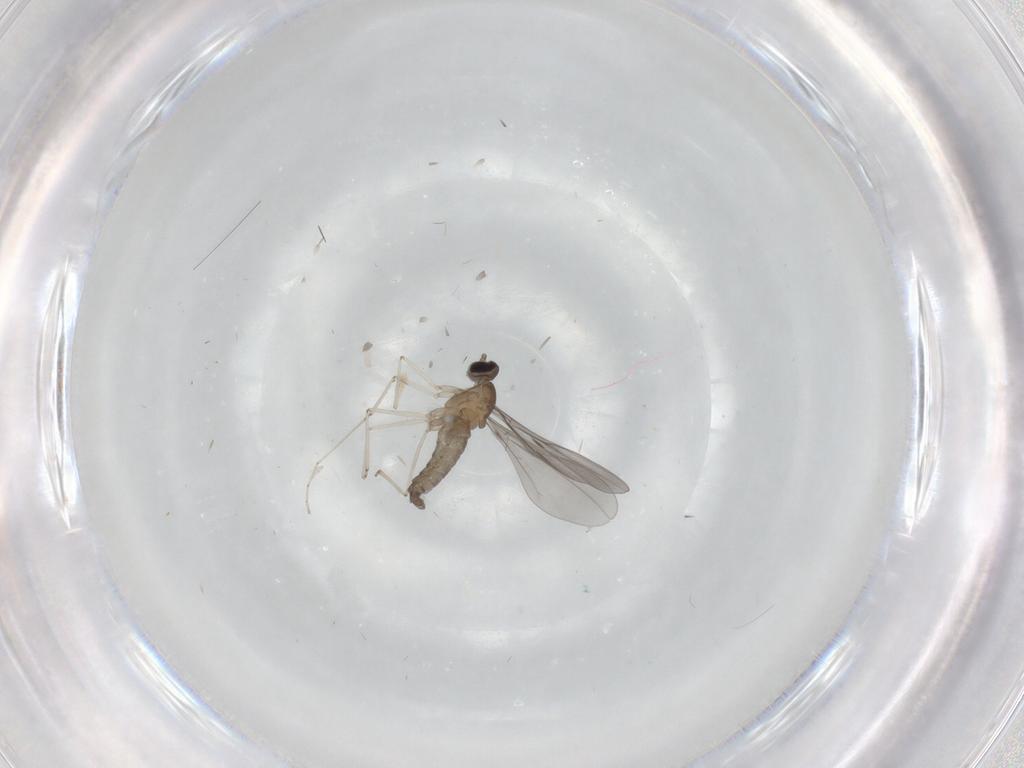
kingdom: Animalia
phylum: Arthropoda
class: Insecta
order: Diptera
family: Cecidomyiidae
